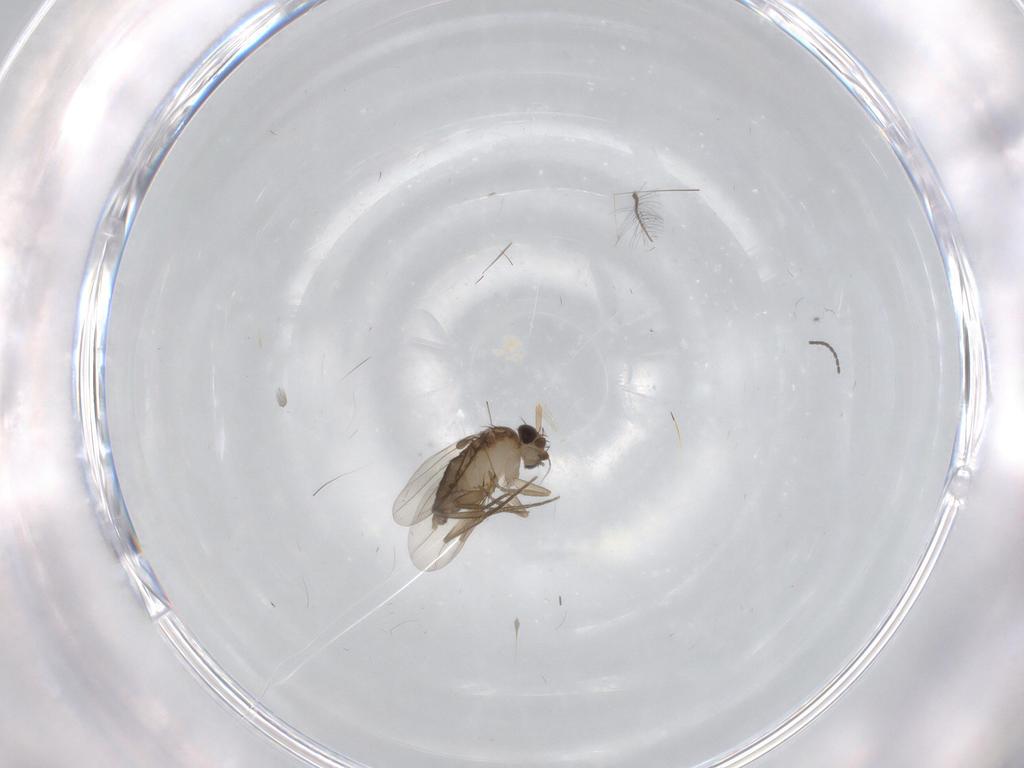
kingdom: Animalia
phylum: Arthropoda
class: Insecta
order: Diptera
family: Phoridae
